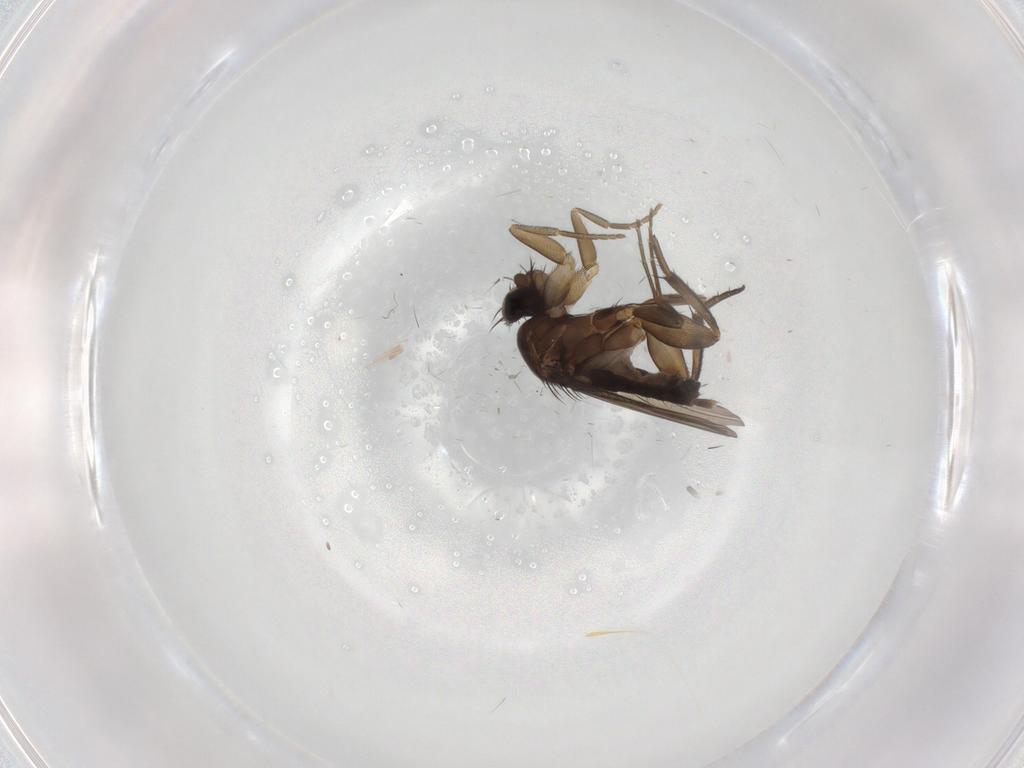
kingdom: Animalia
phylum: Arthropoda
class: Insecta
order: Diptera
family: Phoridae
